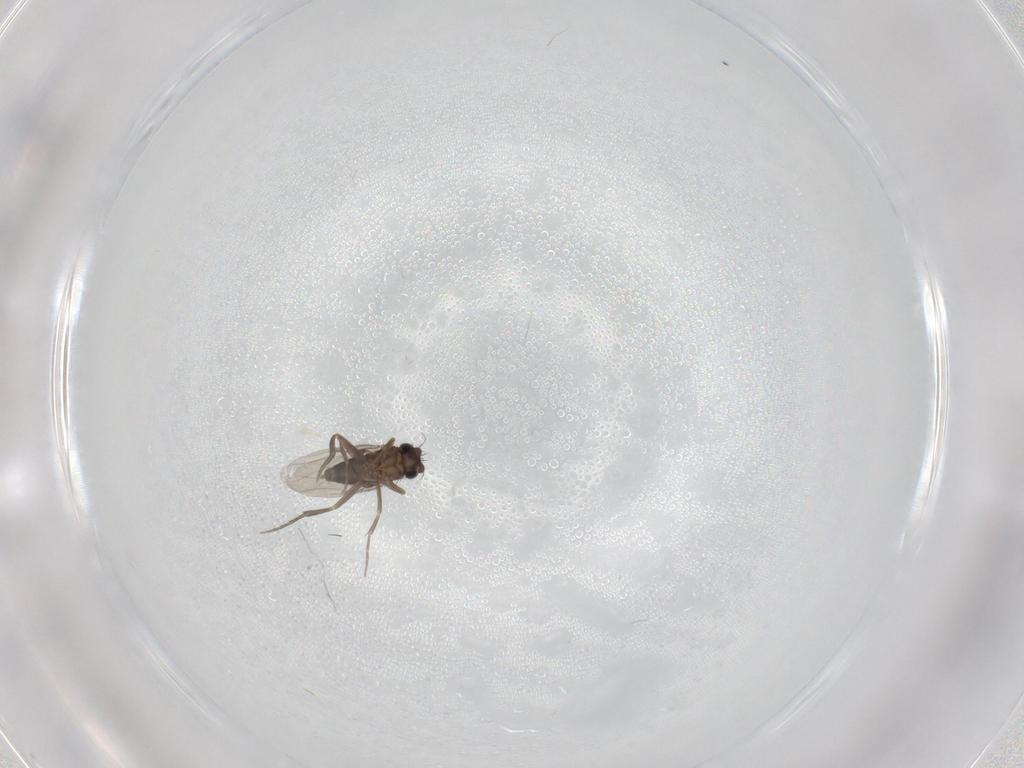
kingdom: Animalia
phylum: Arthropoda
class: Insecta
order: Diptera
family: Phoridae
